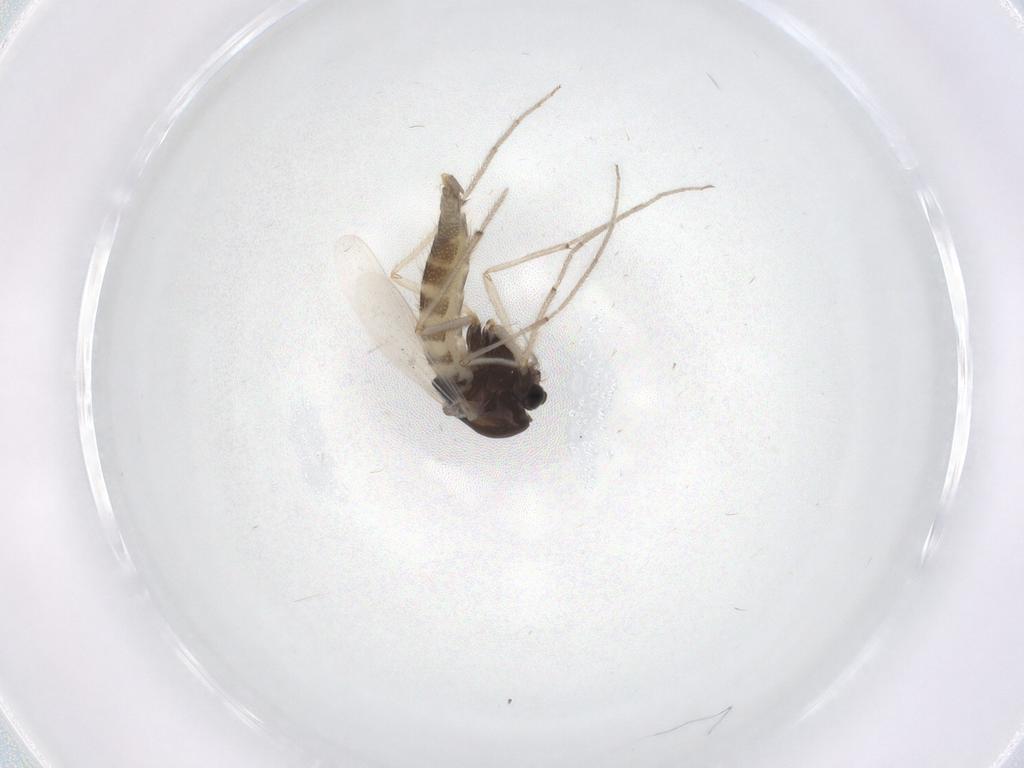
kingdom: Animalia
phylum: Arthropoda
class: Insecta
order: Diptera
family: Chironomidae
